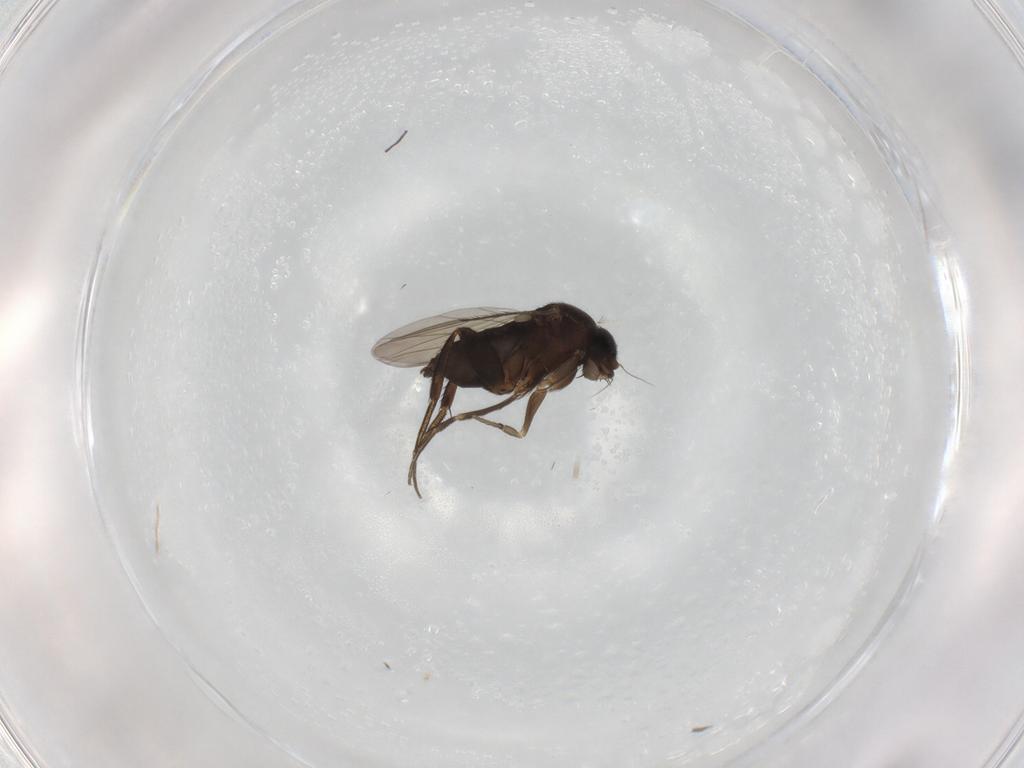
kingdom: Animalia
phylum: Arthropoda
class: Insecta
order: Diptera
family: Phoridae
